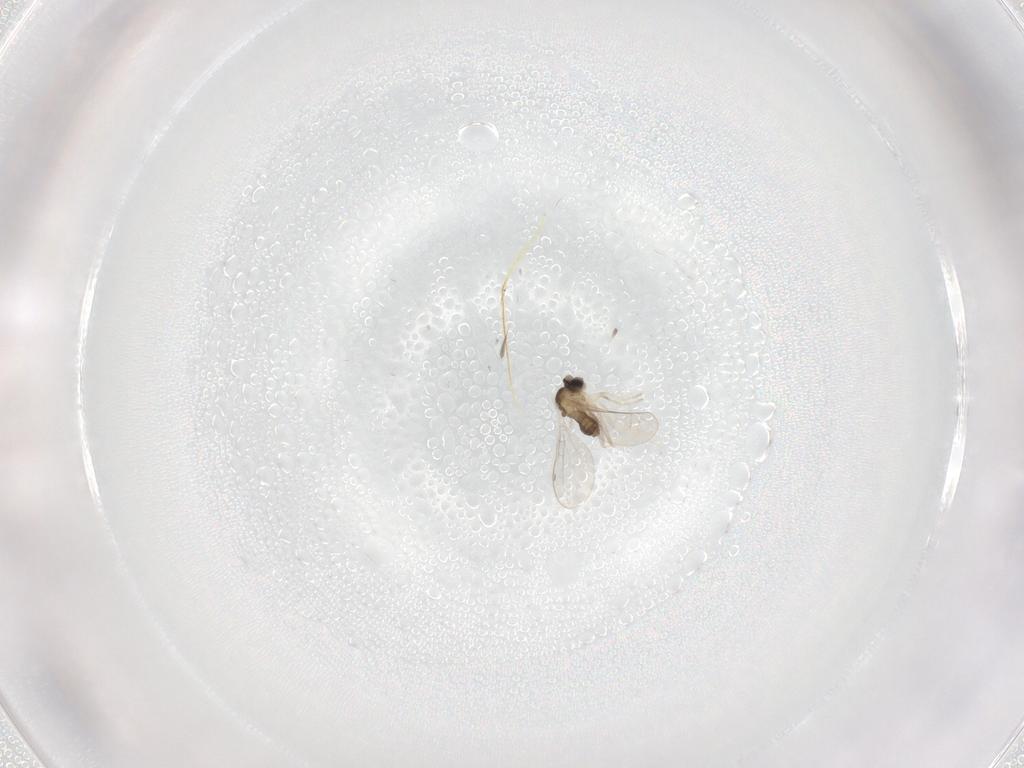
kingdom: Animalia
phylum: Arthropoda
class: Insecta
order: Diptera
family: Cecidomyiidae
